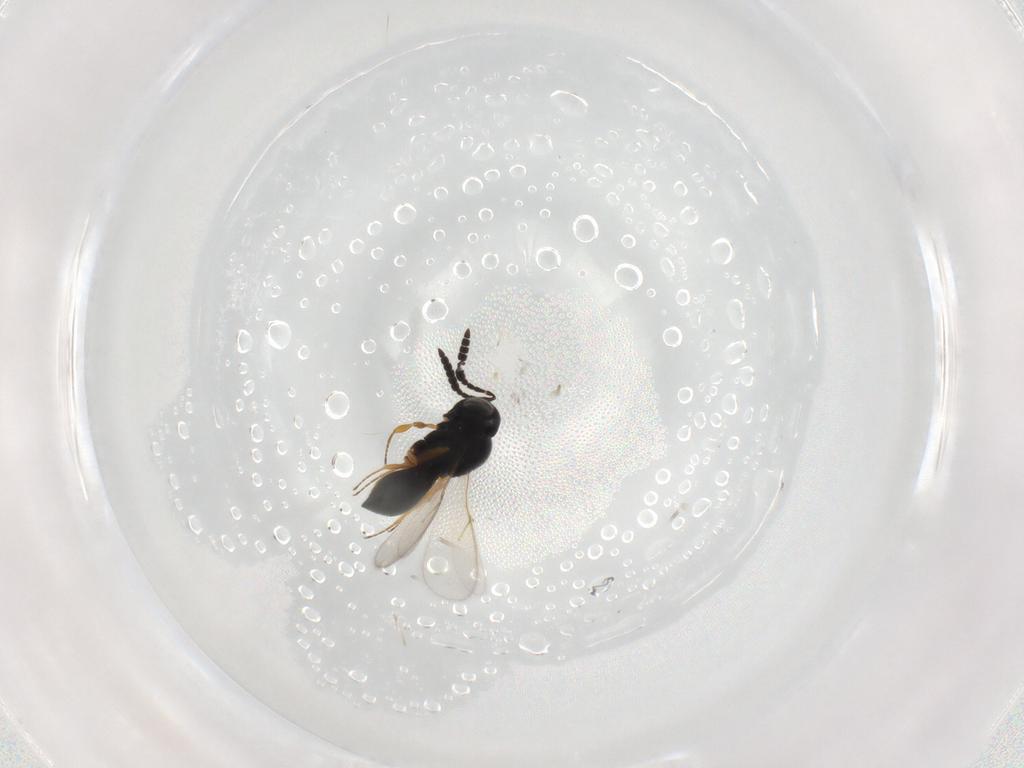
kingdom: Animalia
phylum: Arthropoda
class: Insecta
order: Hymenoptera
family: Scelionidae
